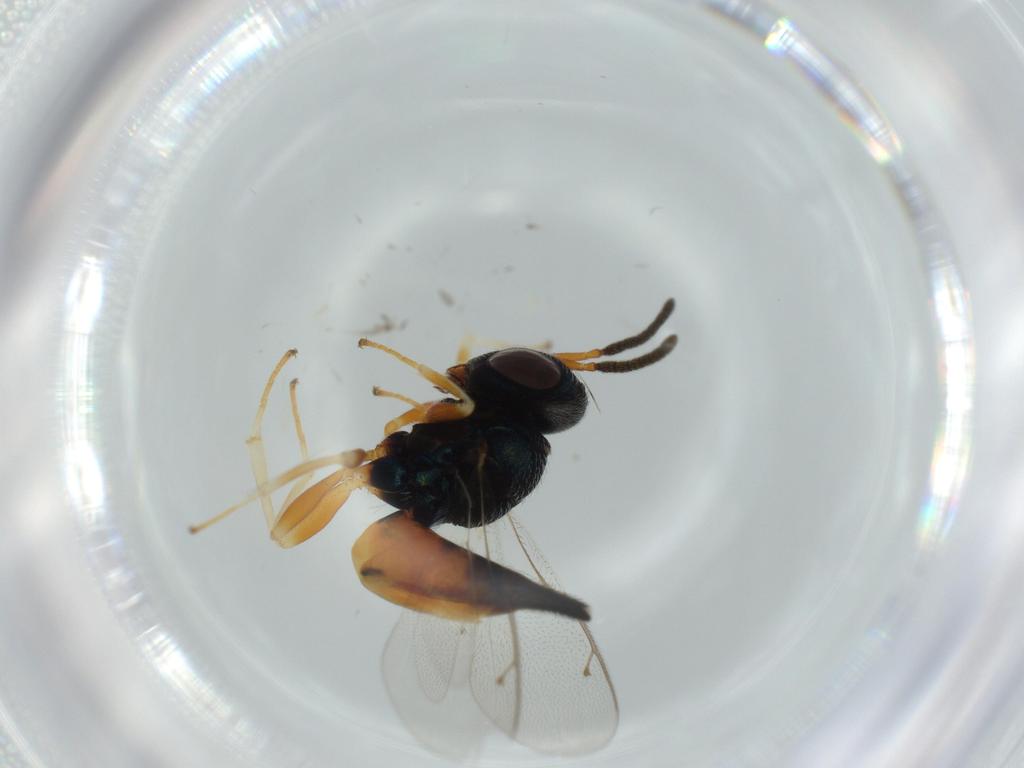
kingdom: Animalia
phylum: Arthropoda
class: Insecta
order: Hymenoptera
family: Pteromalidae
